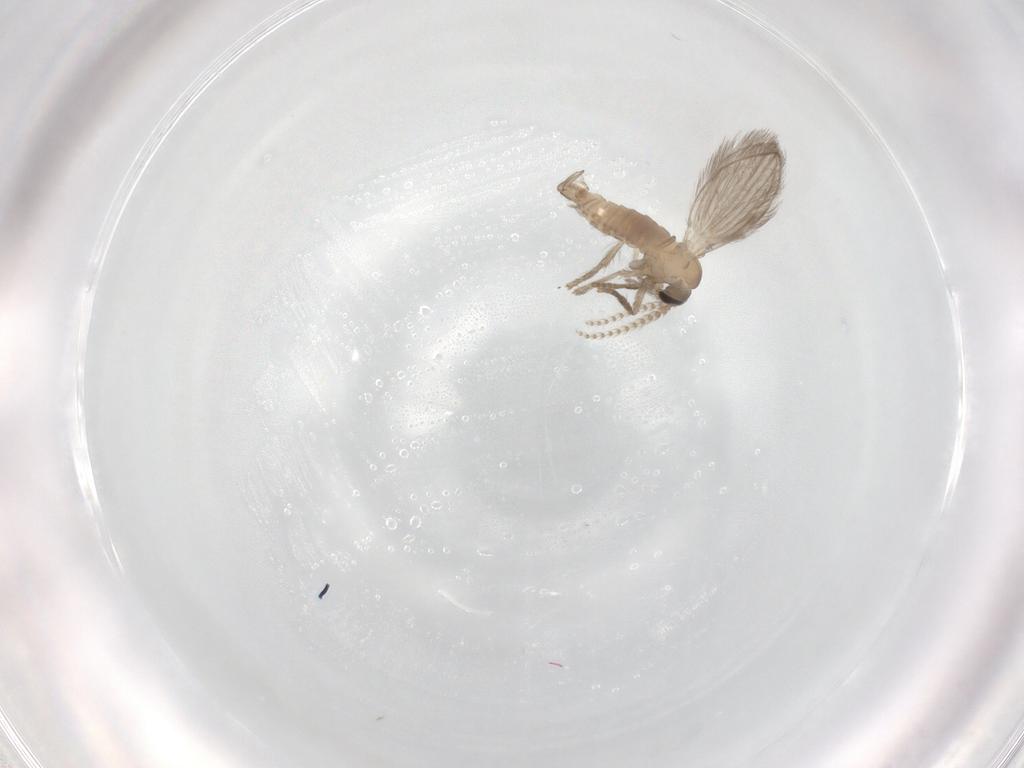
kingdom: Animalia
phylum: Arthropoda
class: Insecta
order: Diptera
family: Psychodidae
